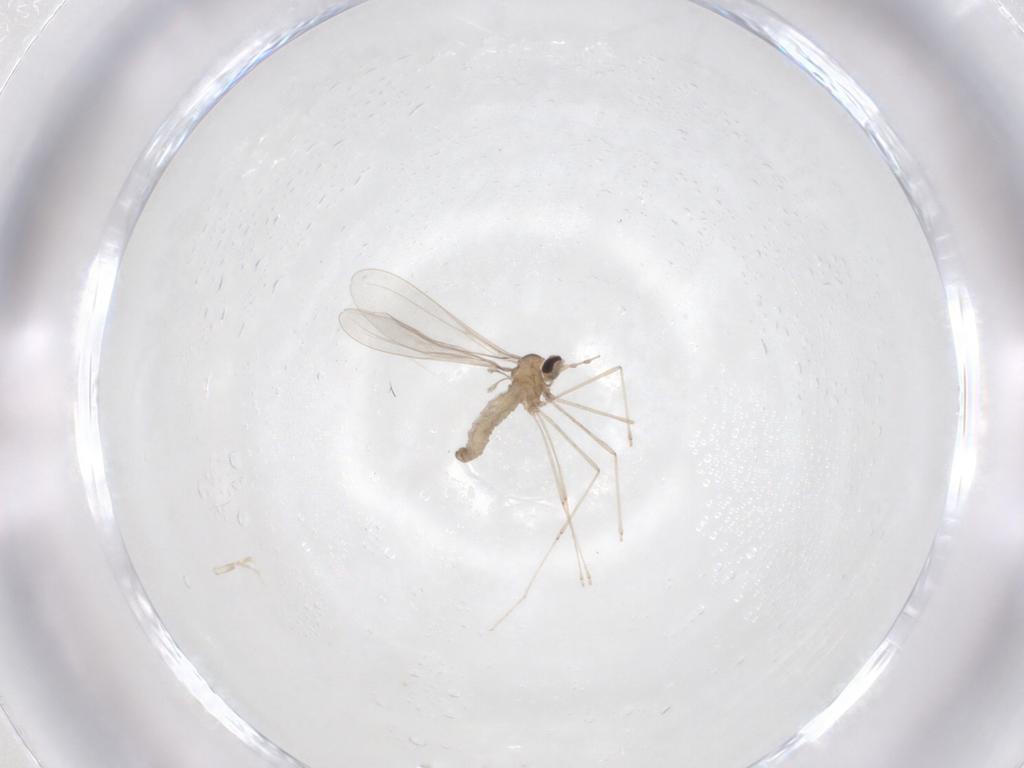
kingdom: Animalia
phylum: Arthropoda
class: Insecta
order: Diptera
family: Cecidomyiidae
